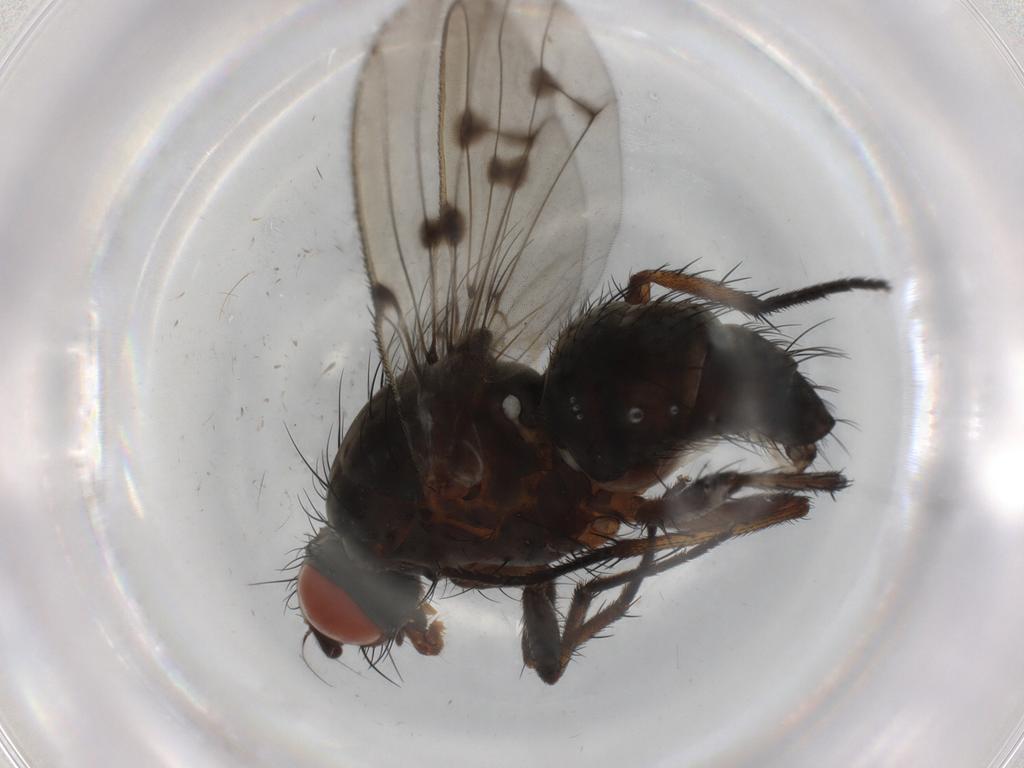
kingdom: Animalia
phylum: Arthropoda
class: Insecta
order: Diptera
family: Anthomyiidae
